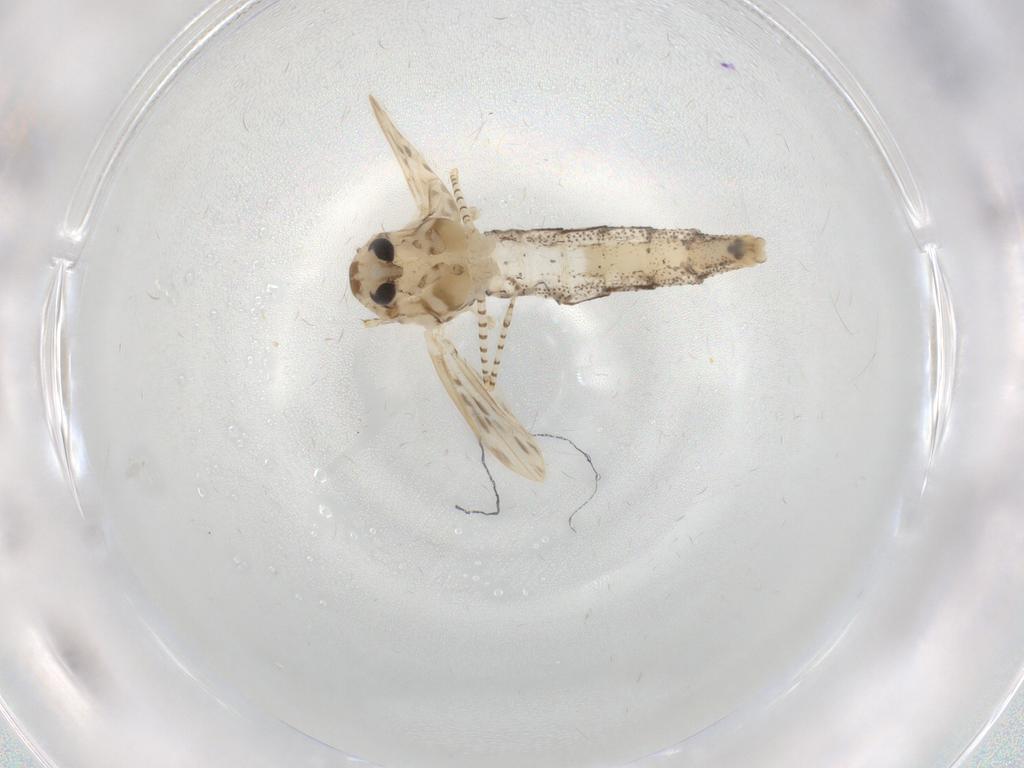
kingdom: Animalia
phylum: Arthropoda
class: Insecta
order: Diptera
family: Chaoboridae
